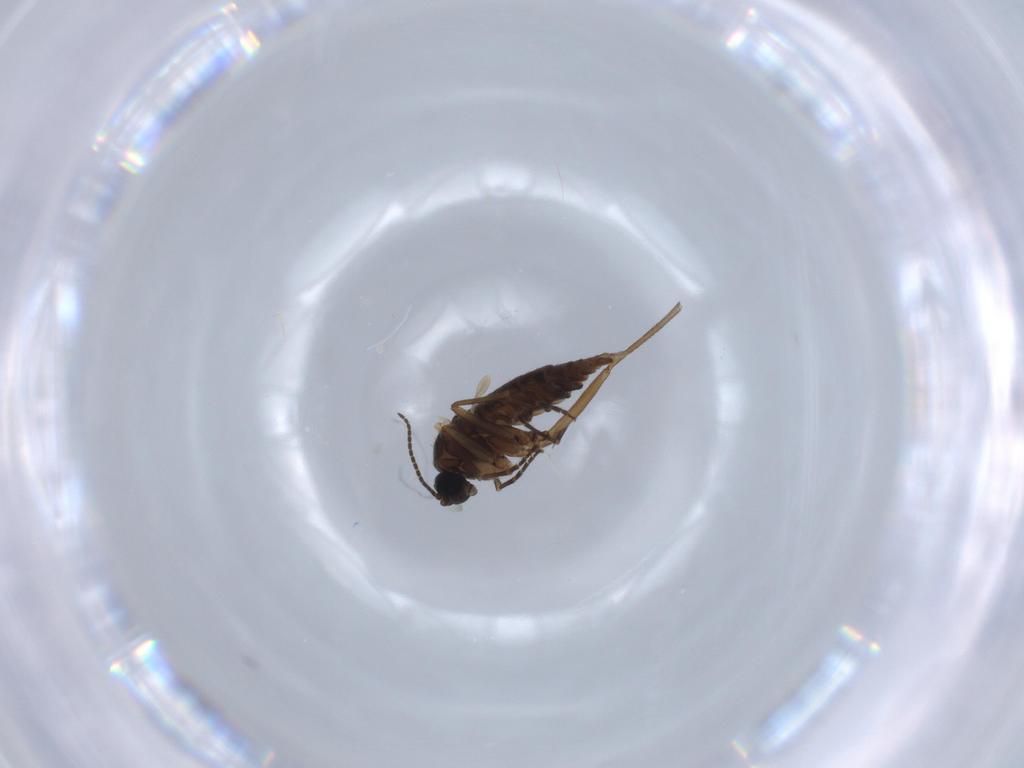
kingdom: Animalia
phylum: Arthropoda
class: Insecta
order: Diptera
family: Sciaridae
